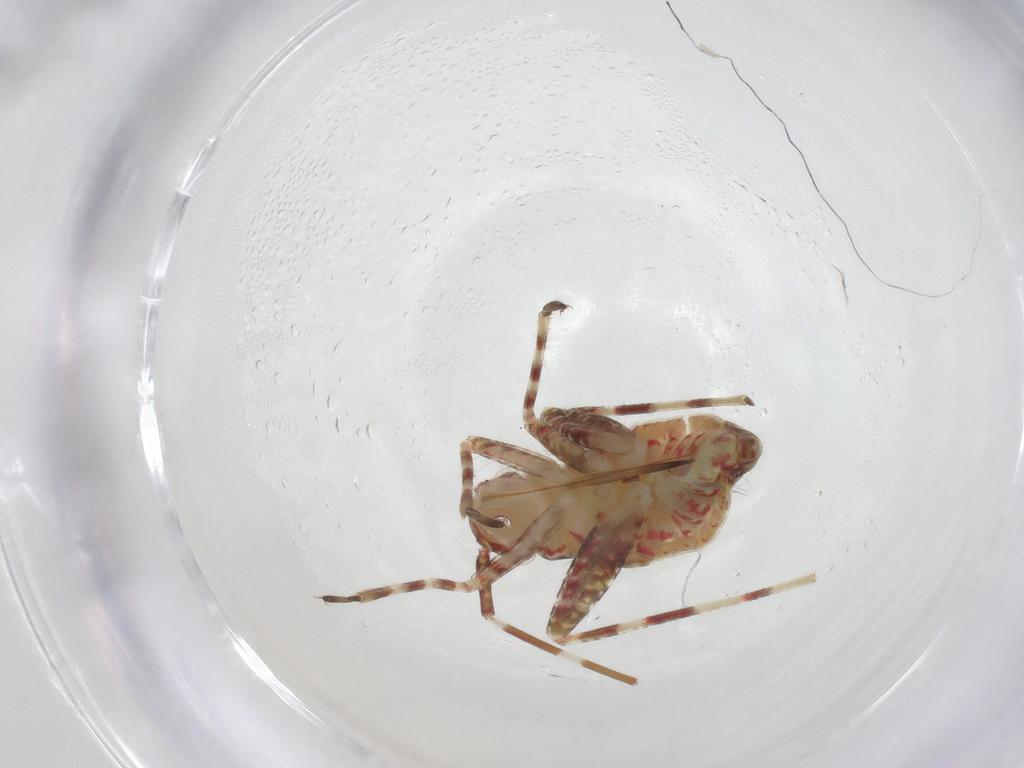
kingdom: Animalia
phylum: Arthropoda
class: Insecta
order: Hemiptera
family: Miridae
